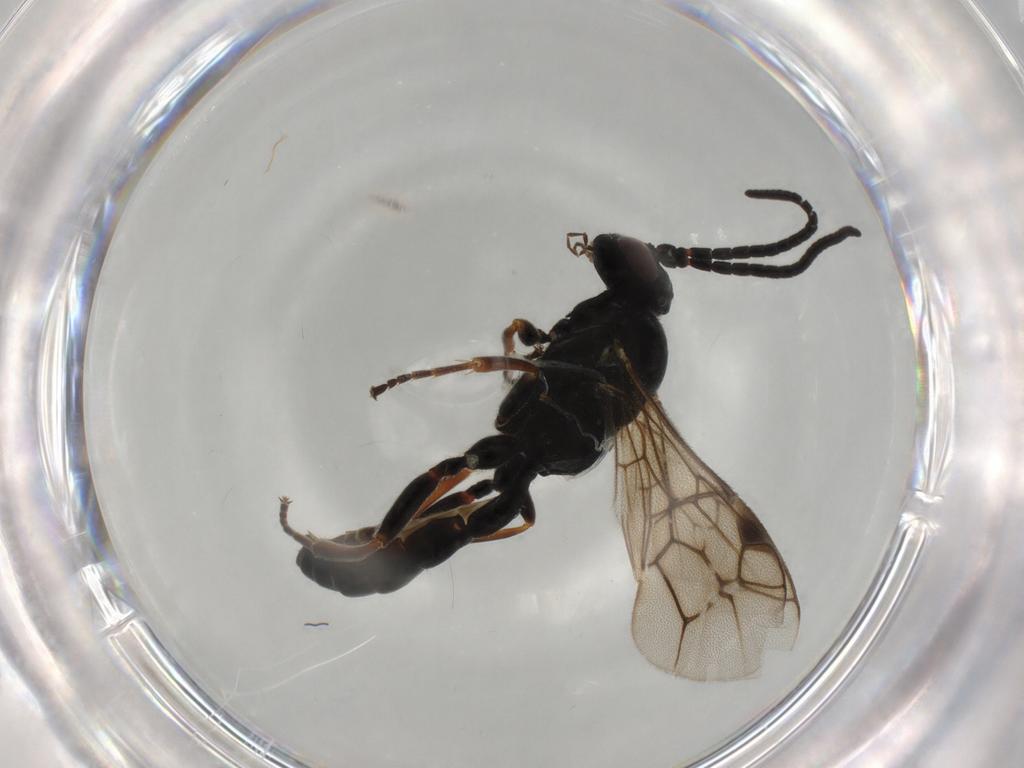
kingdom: Animalia
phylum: Arthropoda
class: Insecta
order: Hymenoptera
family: Ichneumonidae
